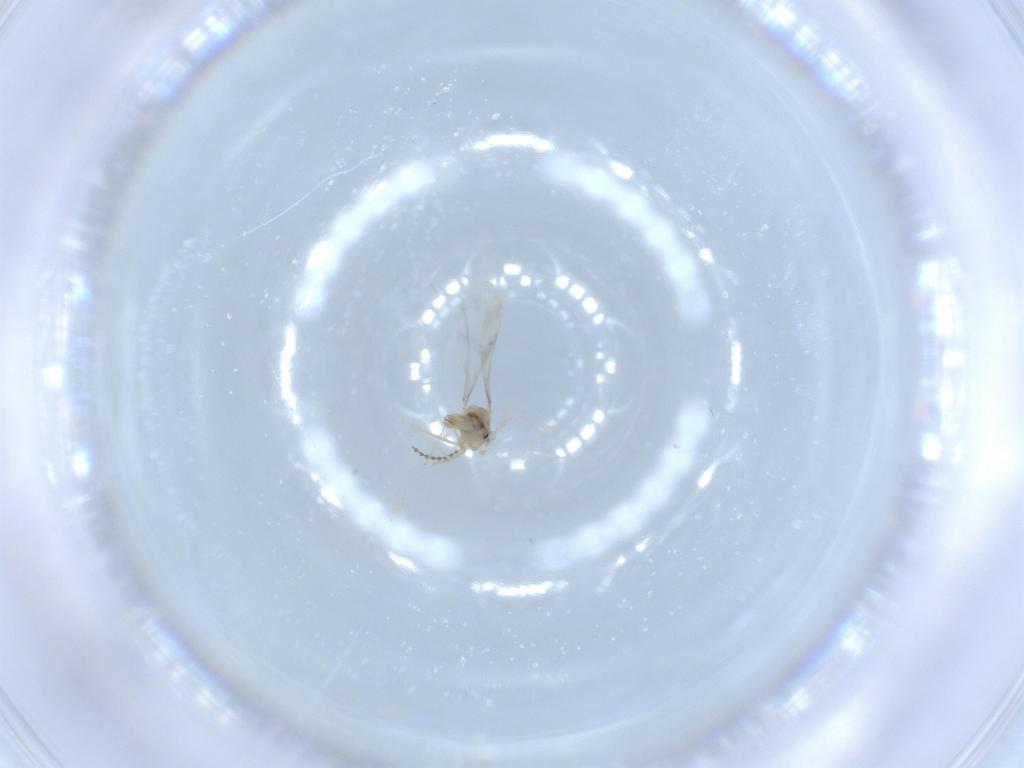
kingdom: Animalia
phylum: Arthropoda
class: Insecta
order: Diptera
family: Cecidomyiidae
